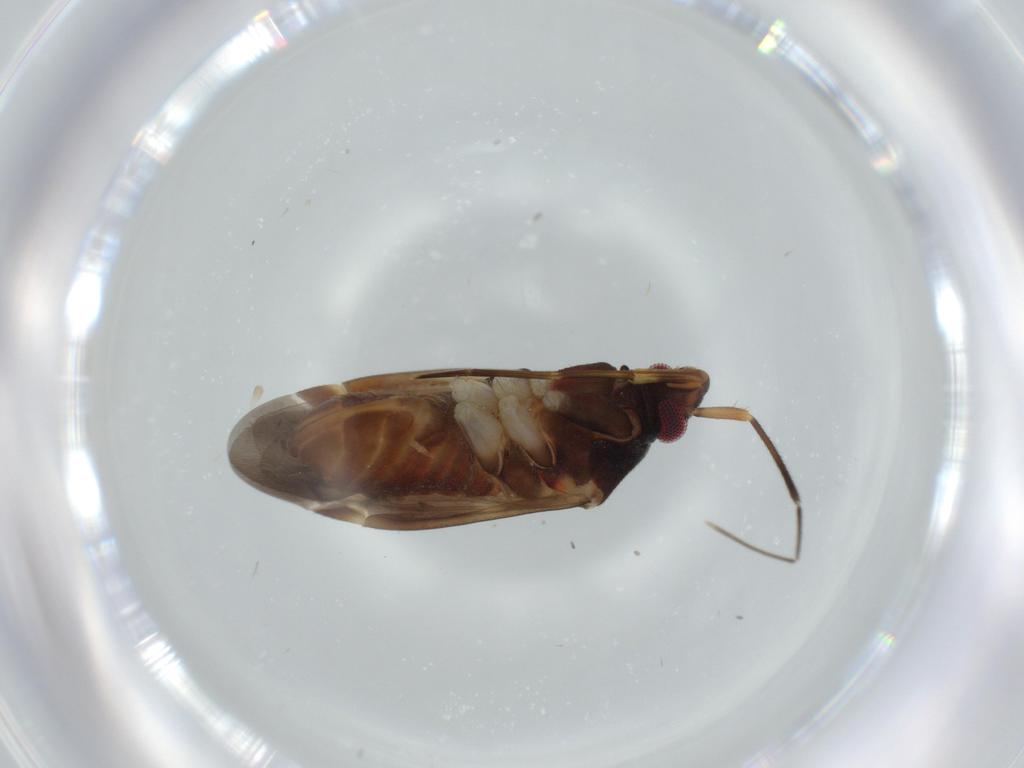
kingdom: Animalia
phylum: Arthropoda
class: Insecta
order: Hemiptera
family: Miridae
